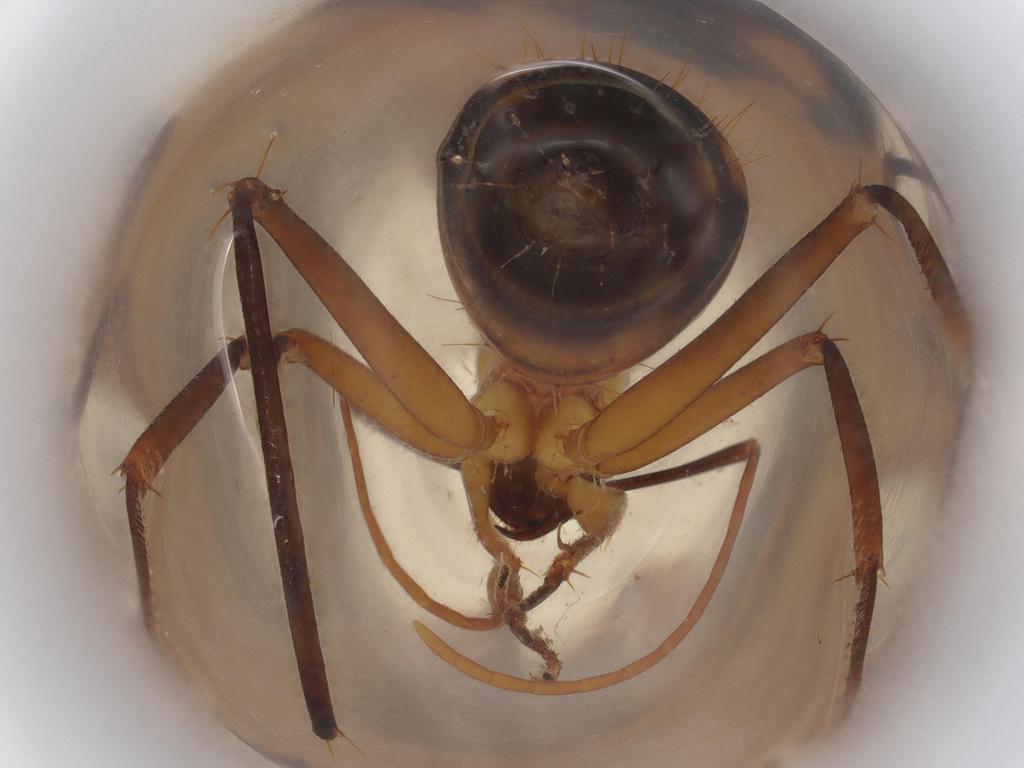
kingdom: Animalia
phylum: Arthropoda
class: Insecta
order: Hymenoptera
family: Formicidae
